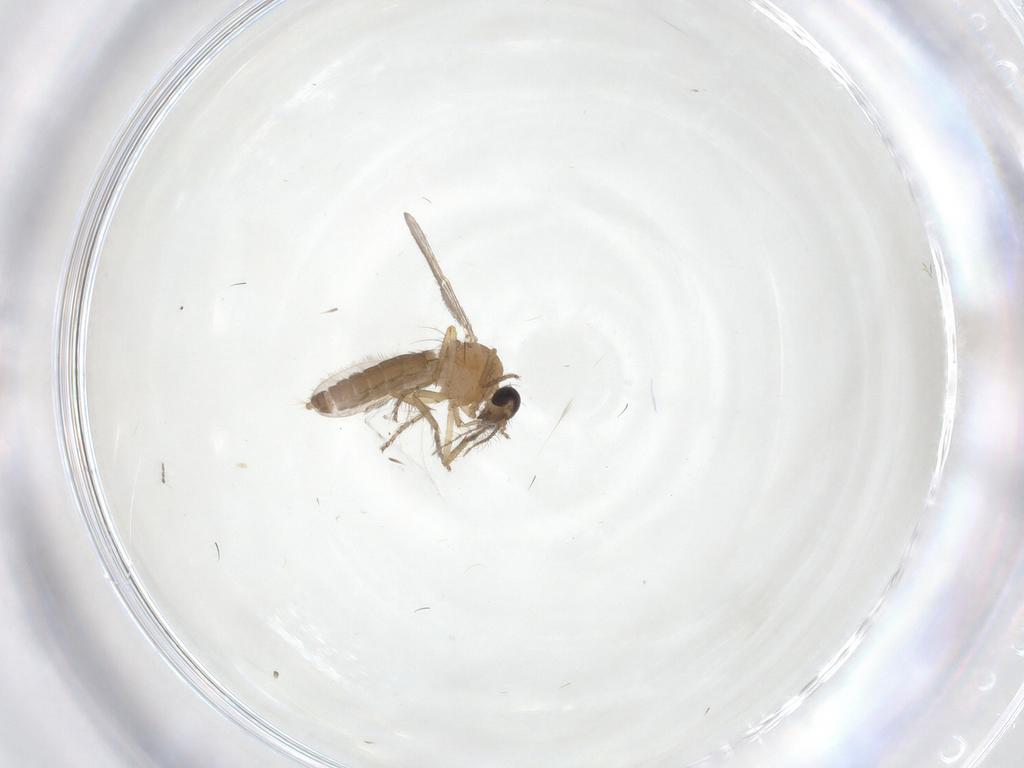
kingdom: Animalia
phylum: Arthropoda
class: Insecta
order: Diptera
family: Ceratopogonidae
